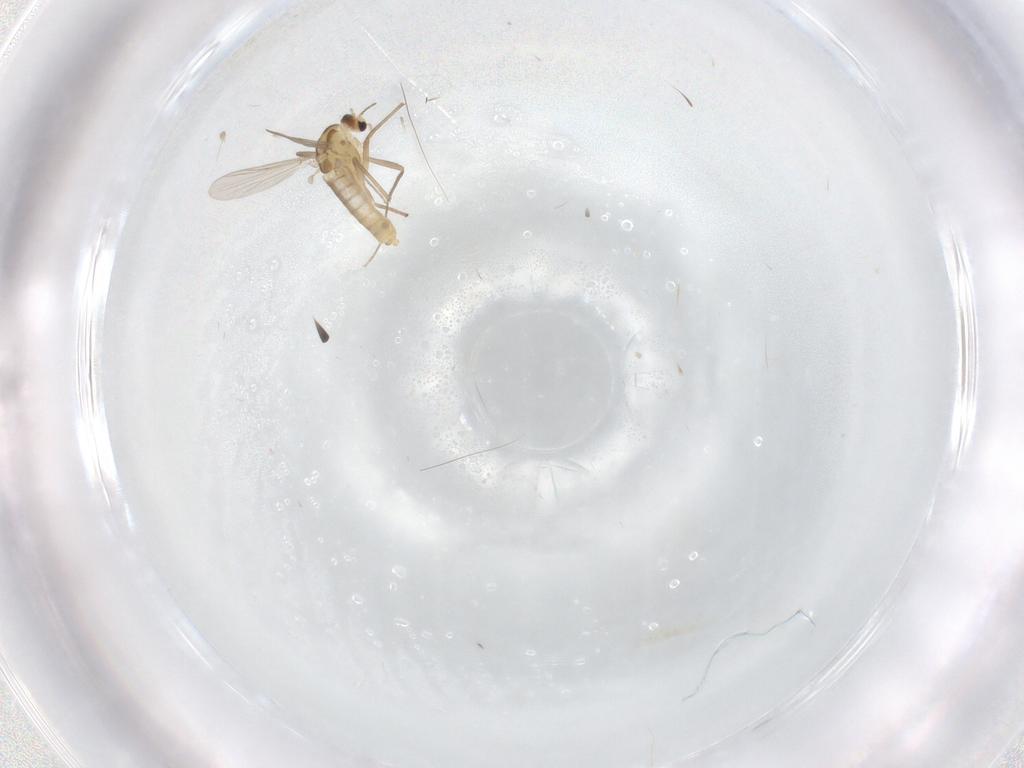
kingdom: Animalia
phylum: Arthropoda
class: Insecta
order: Diptera
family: Chironomidae
